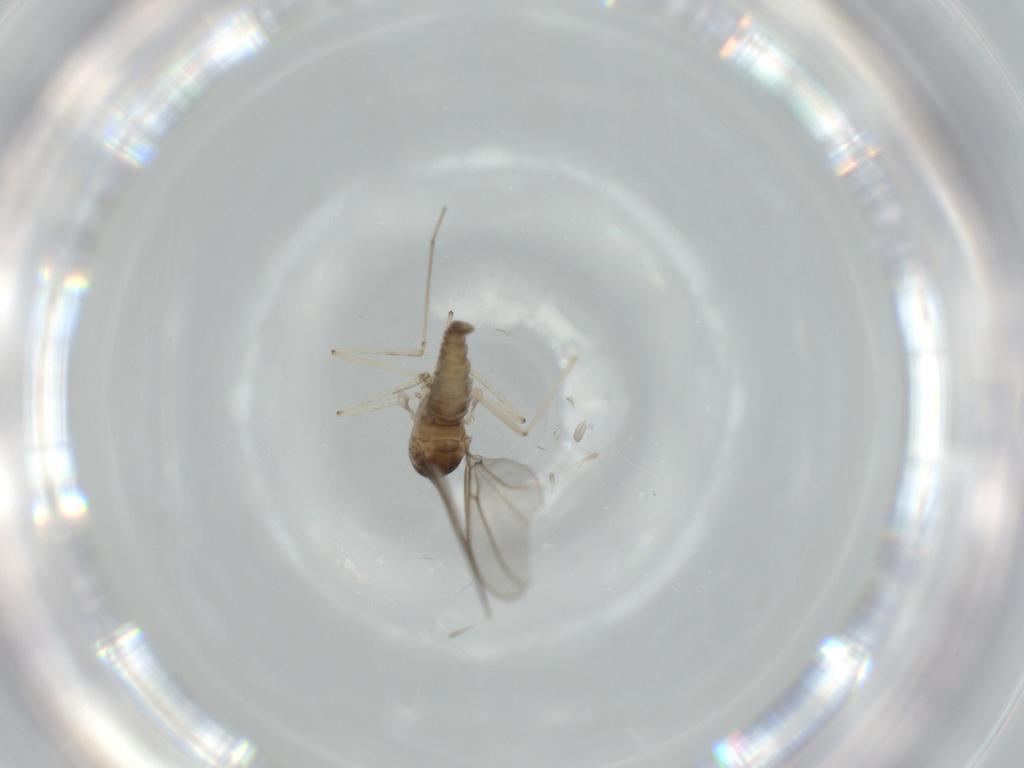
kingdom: Animalia
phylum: Arthropoda
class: Insecta
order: Diptera
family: Cecidomyiidae
